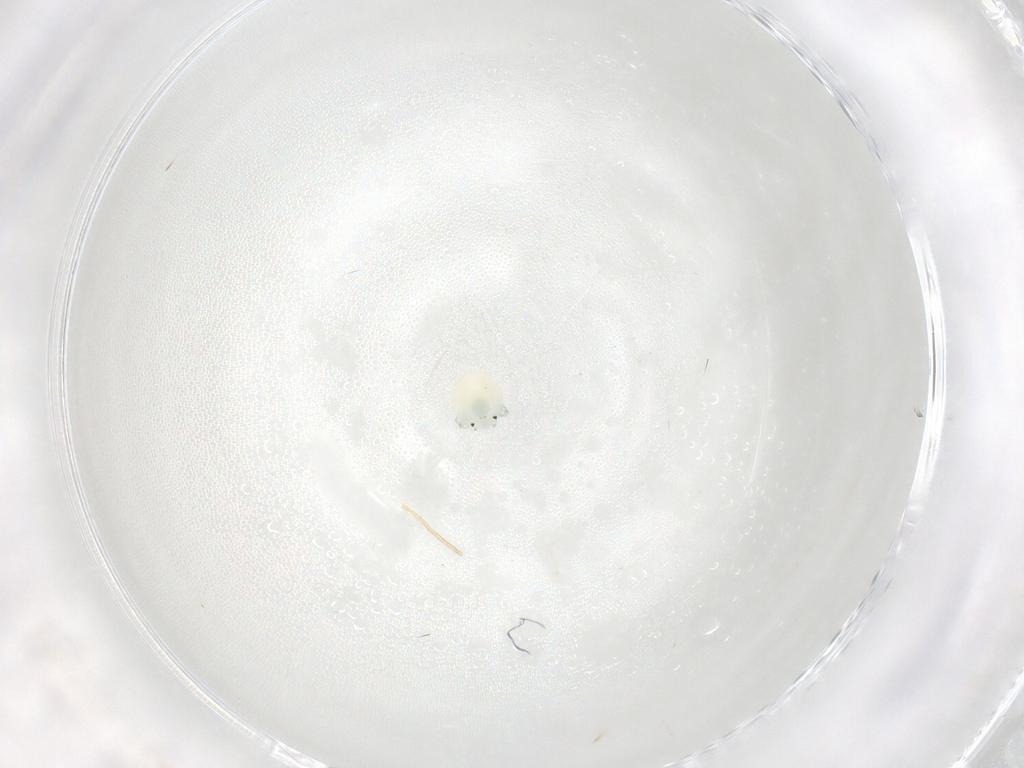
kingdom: Animalia
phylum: Arthropoda
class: Arachnida
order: Trombidiformes
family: Arrenuridae
